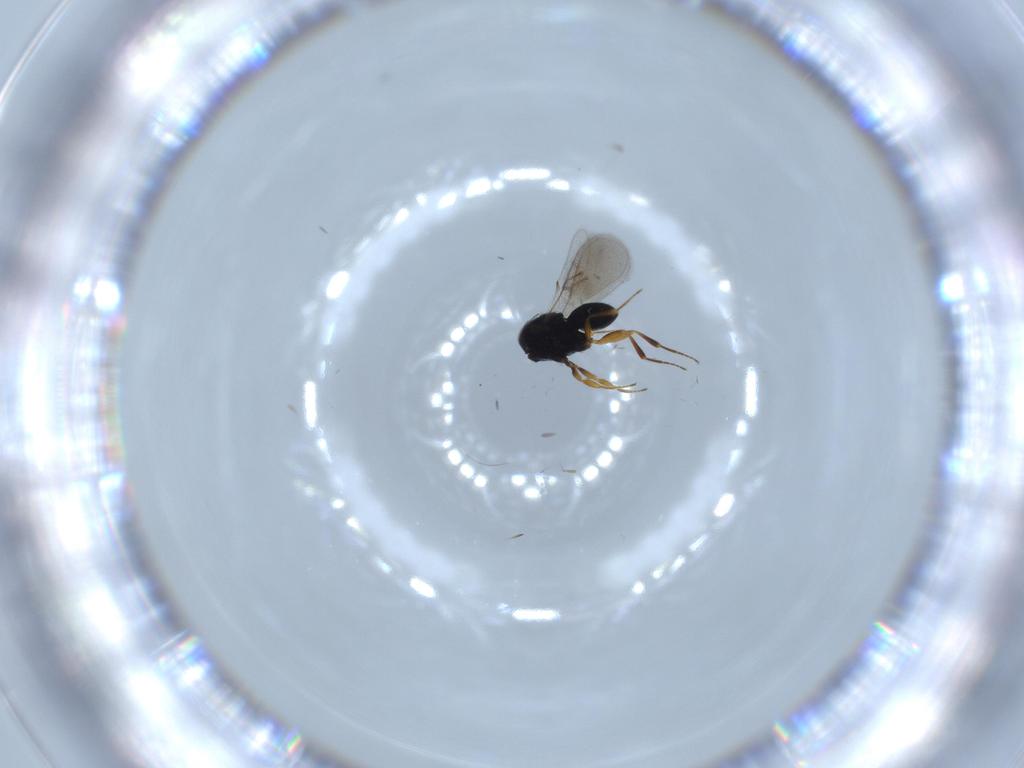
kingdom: Animalia
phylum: Arthropoda
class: Insecta
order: Hymenoptera
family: Scelionidae
